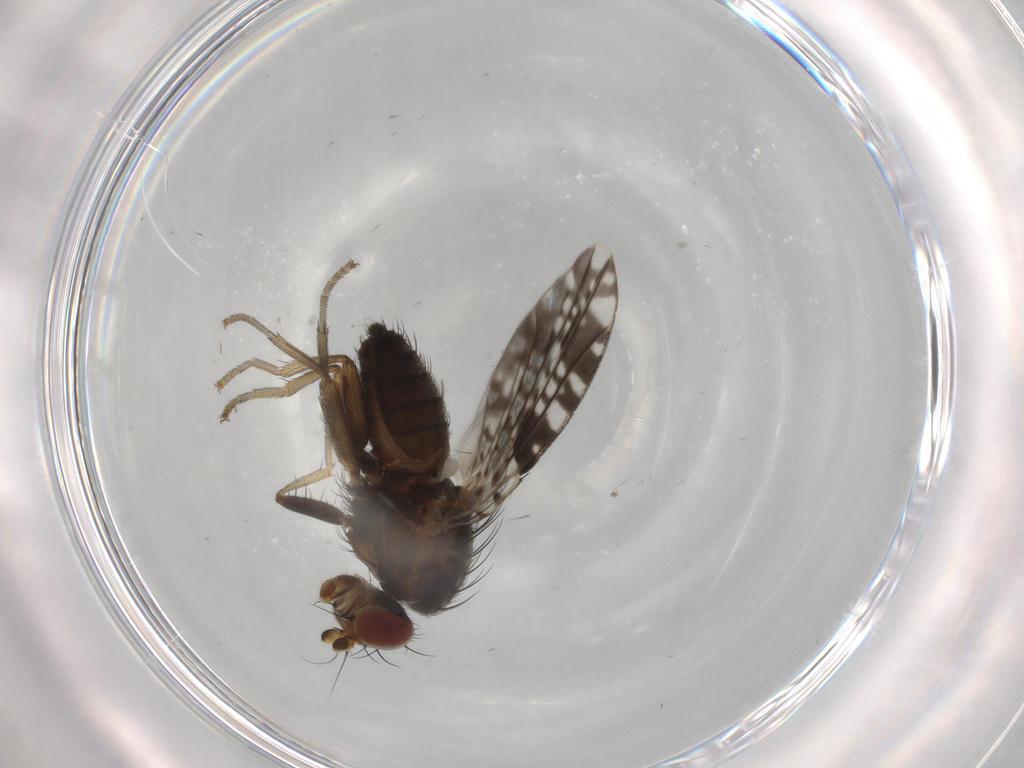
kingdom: Animalia
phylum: Arthropoda
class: Insecta
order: Diptera
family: Tephritidae
